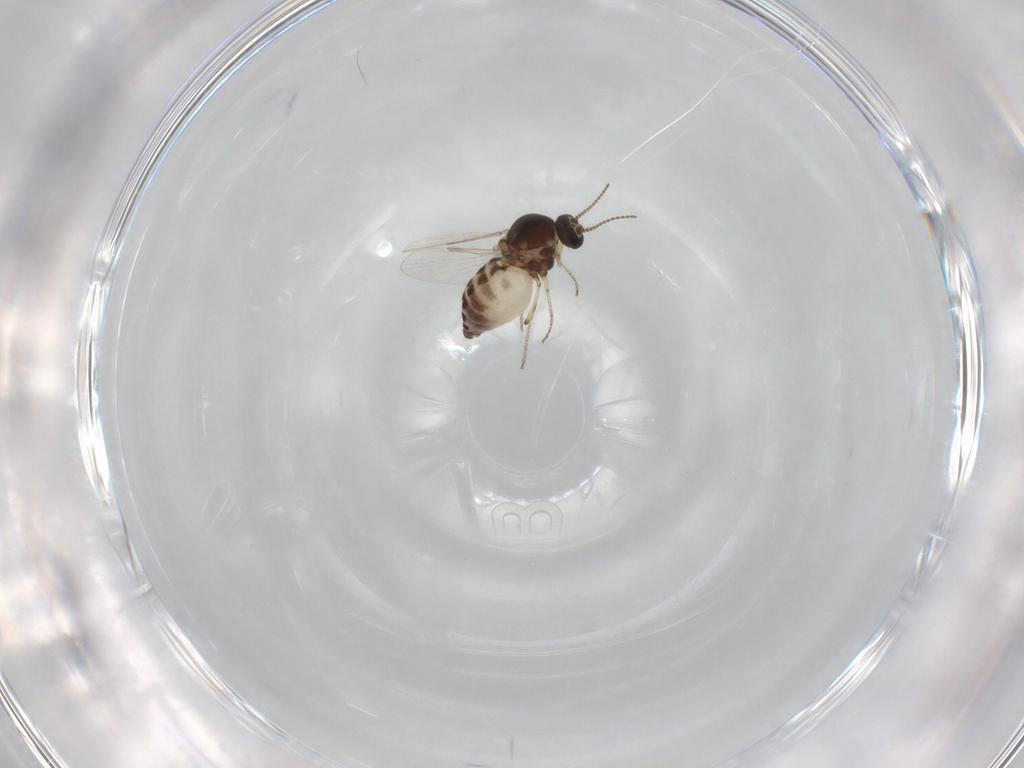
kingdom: Animalia
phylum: Arthropoda
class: Insecta
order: Diptera
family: Ceratopogonidae
